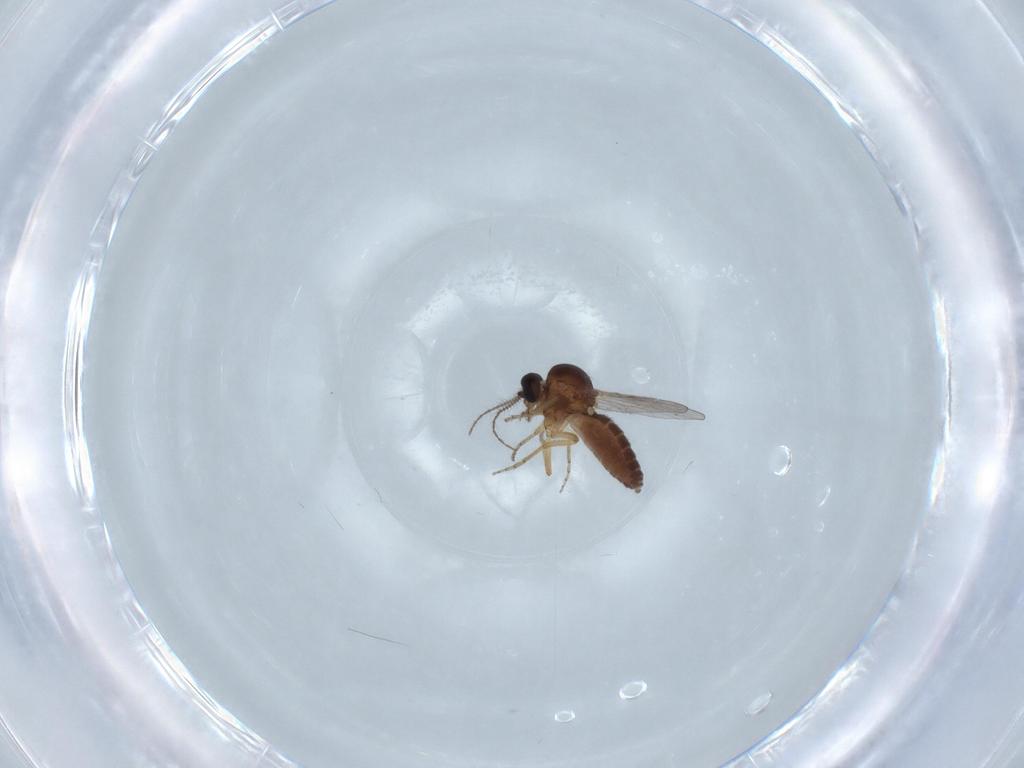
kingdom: Animalia
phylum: Arthropoda
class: Insecta
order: Diptera
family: Ceratopogonidae
